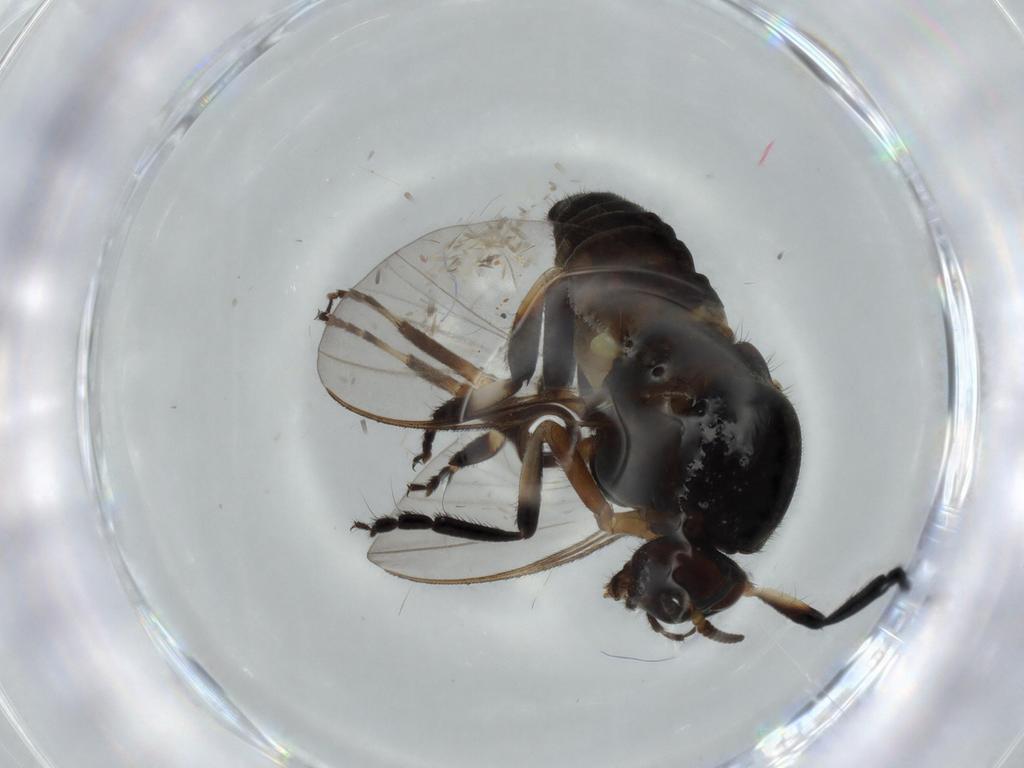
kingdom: Animalia
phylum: Arthropoda
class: Insecta
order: Diptera
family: Phoridae
